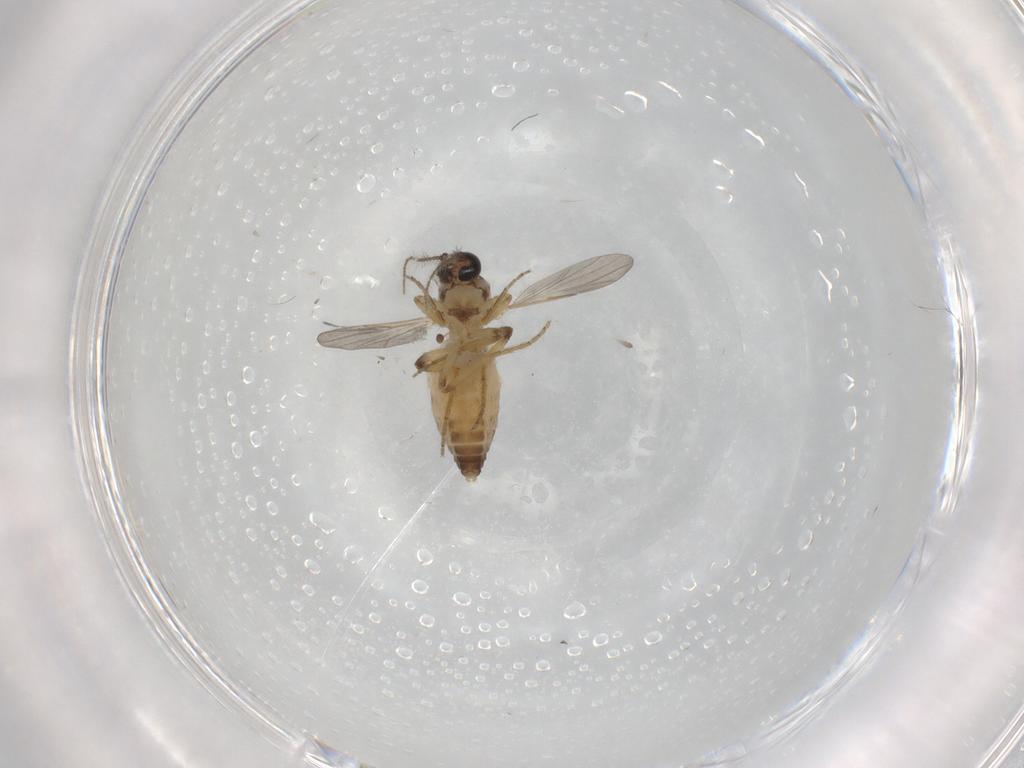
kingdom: Animalia
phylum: Arthropoda
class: Insecta
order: Diptera
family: Ceratopogonidae
